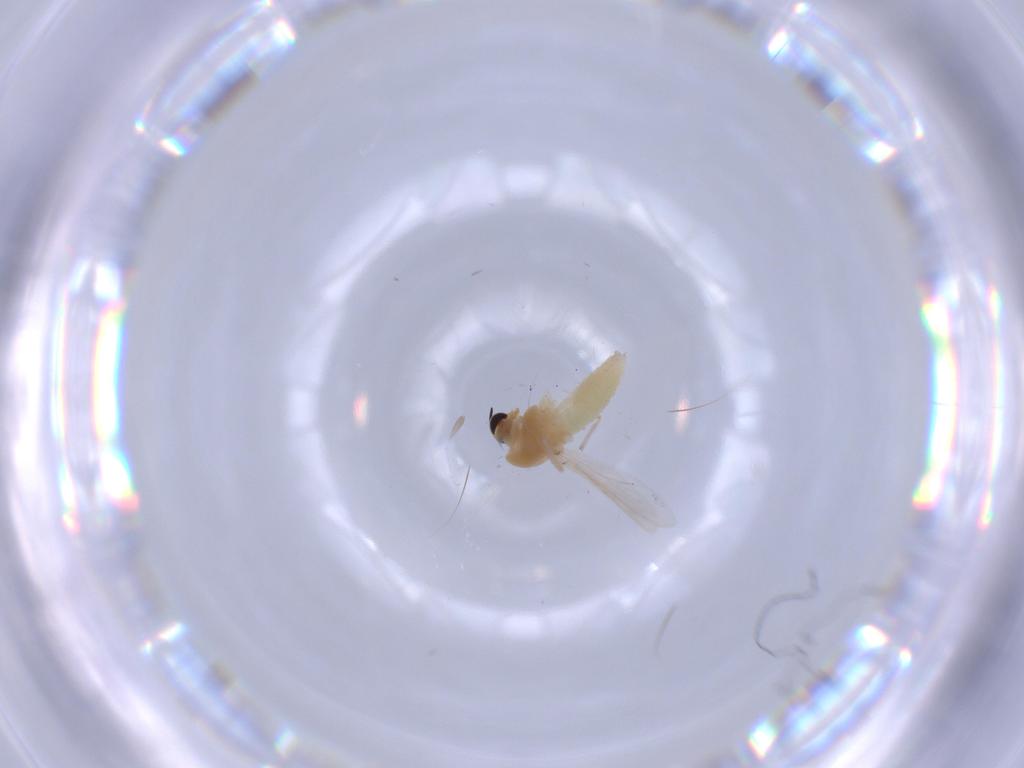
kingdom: Animalia
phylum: Arthropoda
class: Insecta
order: Diptera
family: Chironomidae
